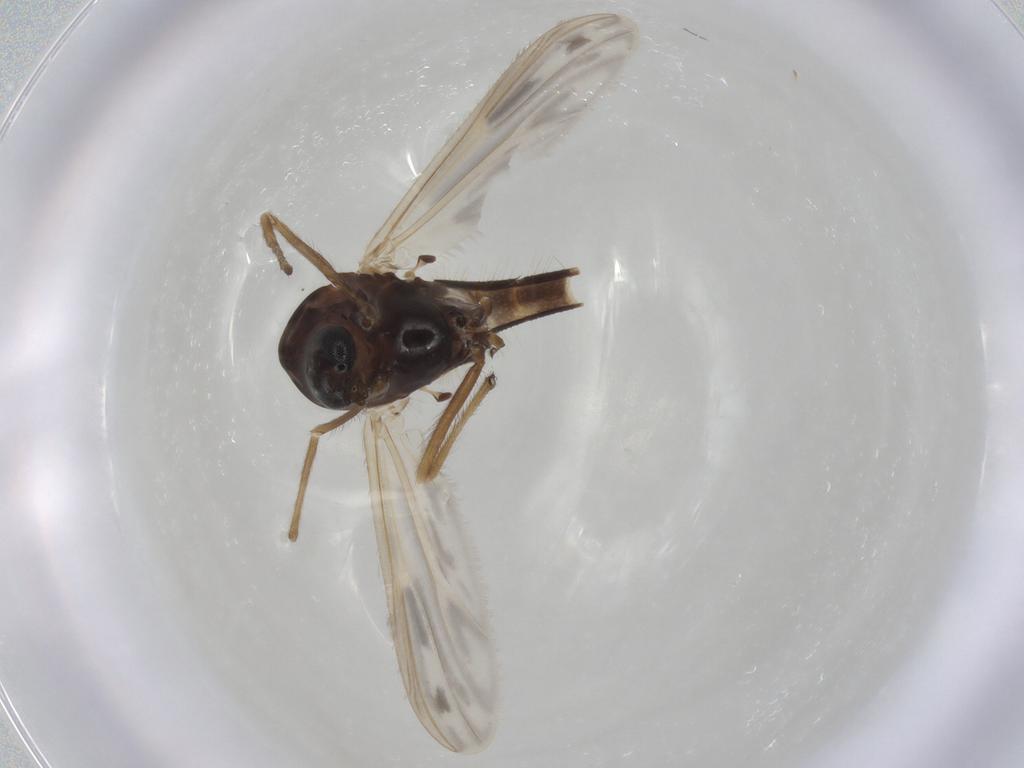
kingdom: Animalia
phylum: Arthropoda
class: Insecta
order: Diptera
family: Chironomidae
